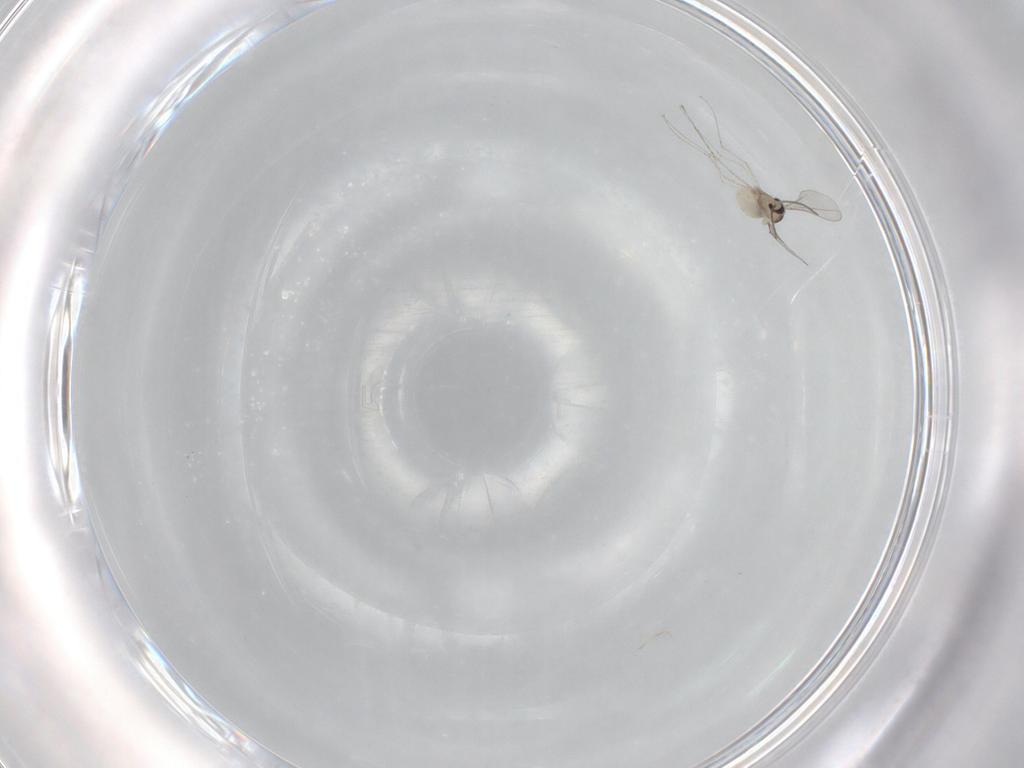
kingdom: Animalia
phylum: Arthropoda
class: Insecta
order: Diptera
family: Cecidomyiidae
